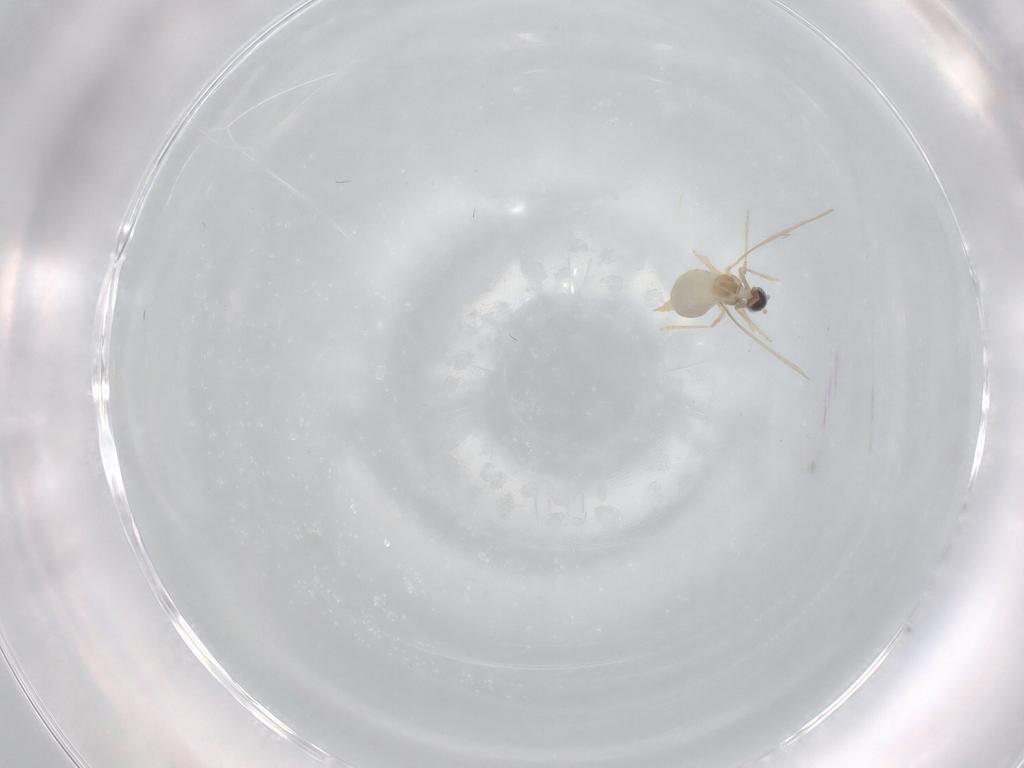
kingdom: Animalia
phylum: Arthropoda
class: Insecta
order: Diptera
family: Cecidomyiidae
